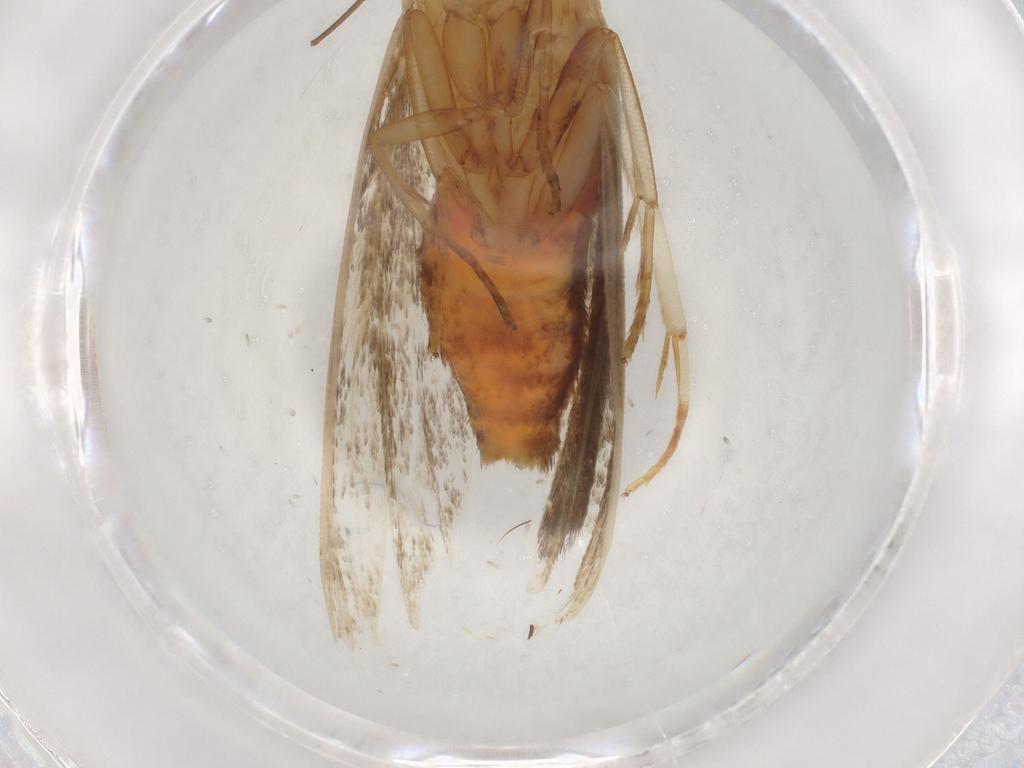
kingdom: Animalia
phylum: Arthropoda
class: Insecta
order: Lepidoptera
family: Gelechiidae
